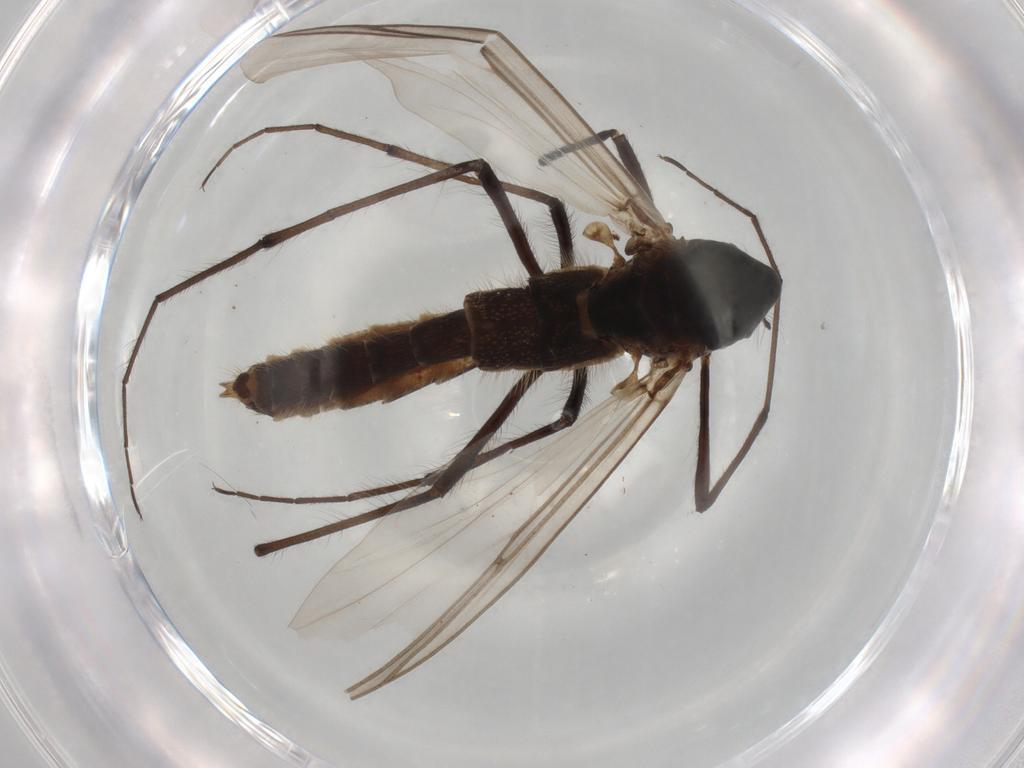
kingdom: Animalia
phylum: Arthropoda
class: Insecta
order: Diptera
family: Chironomidae
